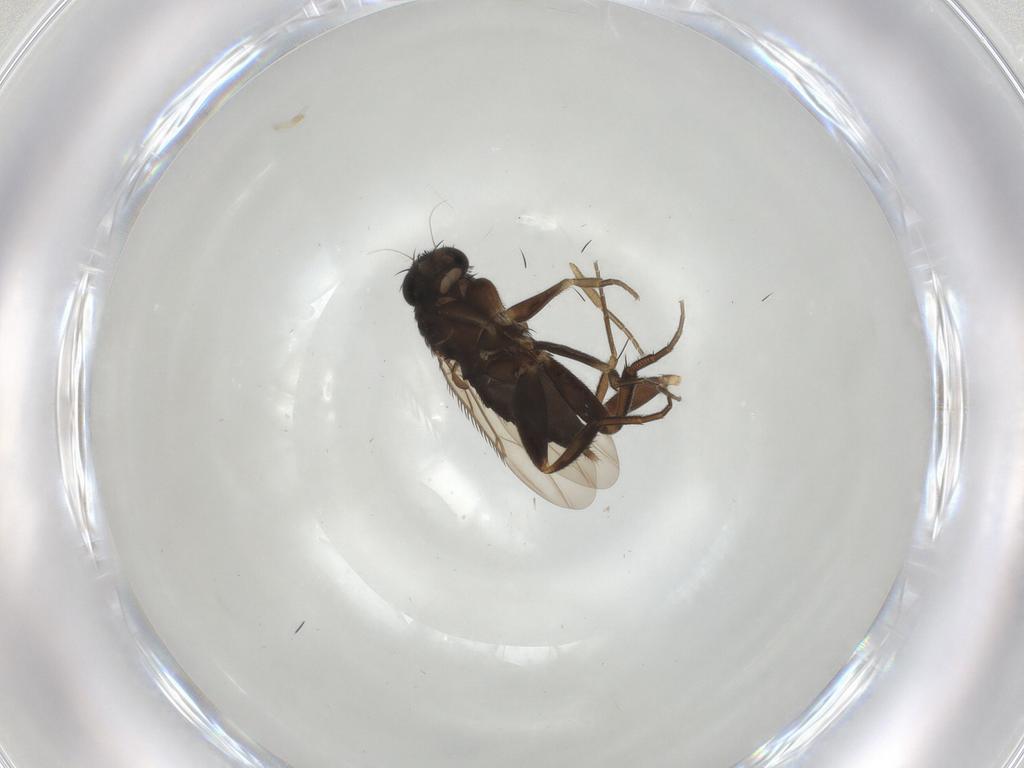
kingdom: Animalia
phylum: Arthropoda
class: Insecta
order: Diptera
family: Phoridae
